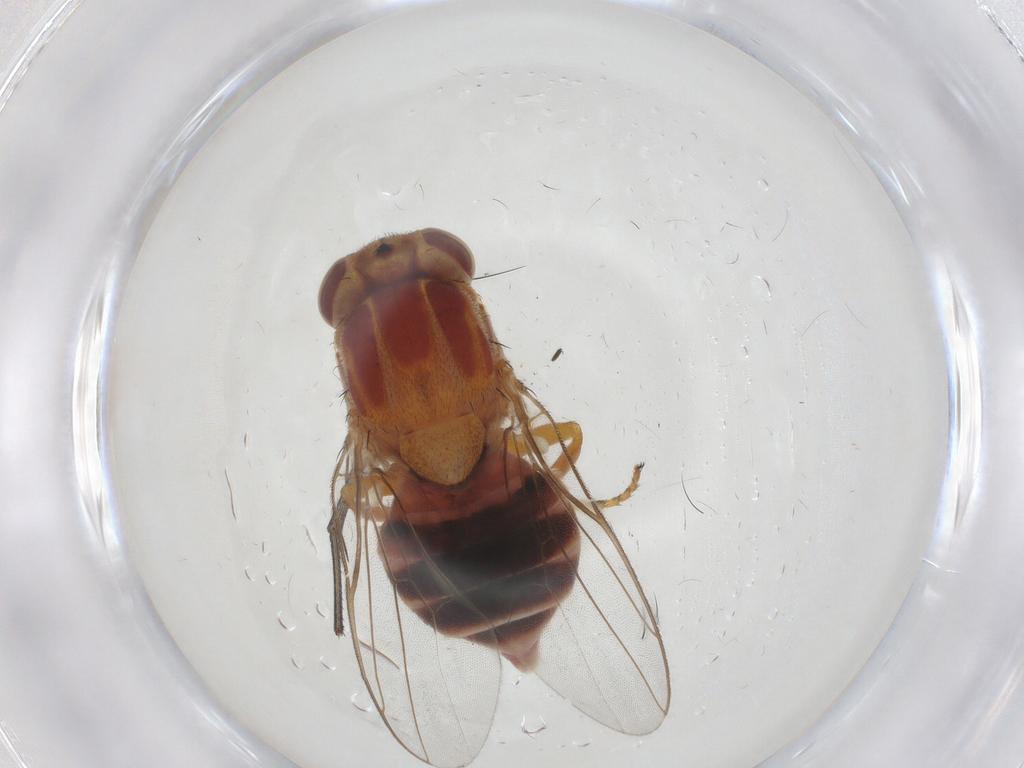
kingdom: Animalia
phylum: Arthropoda
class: Insecta
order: Diptera
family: Chloropidae
